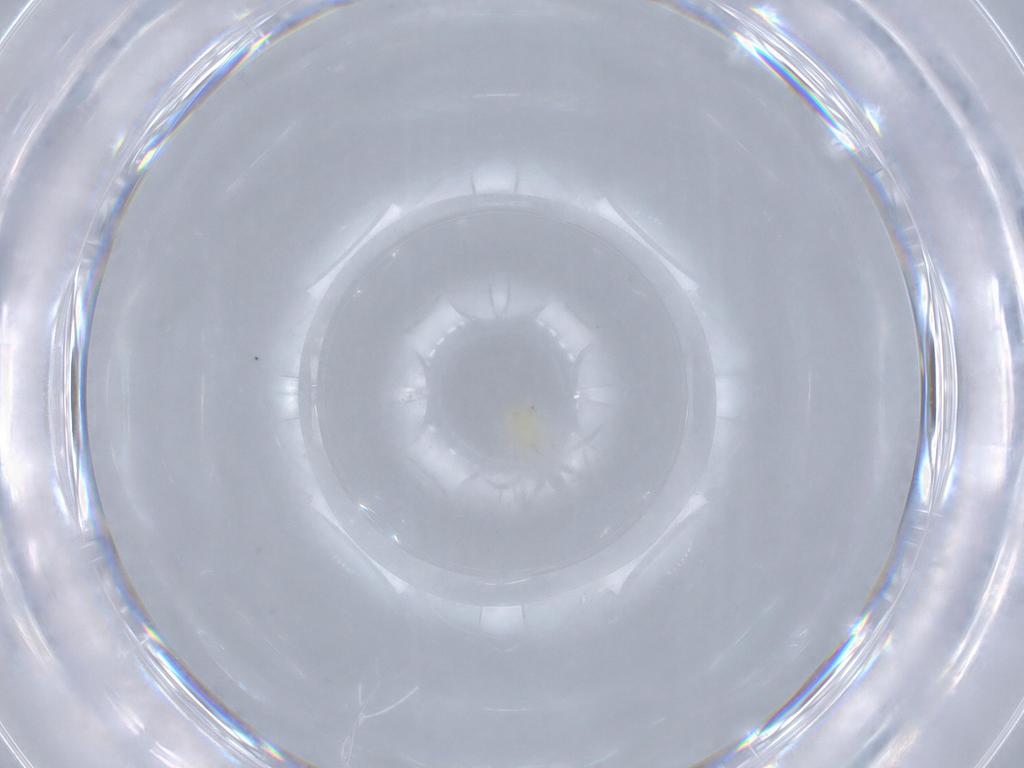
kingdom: Animalia
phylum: Arthropoda
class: Arachnida
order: Mesostigmata
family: Phytoseiidae
